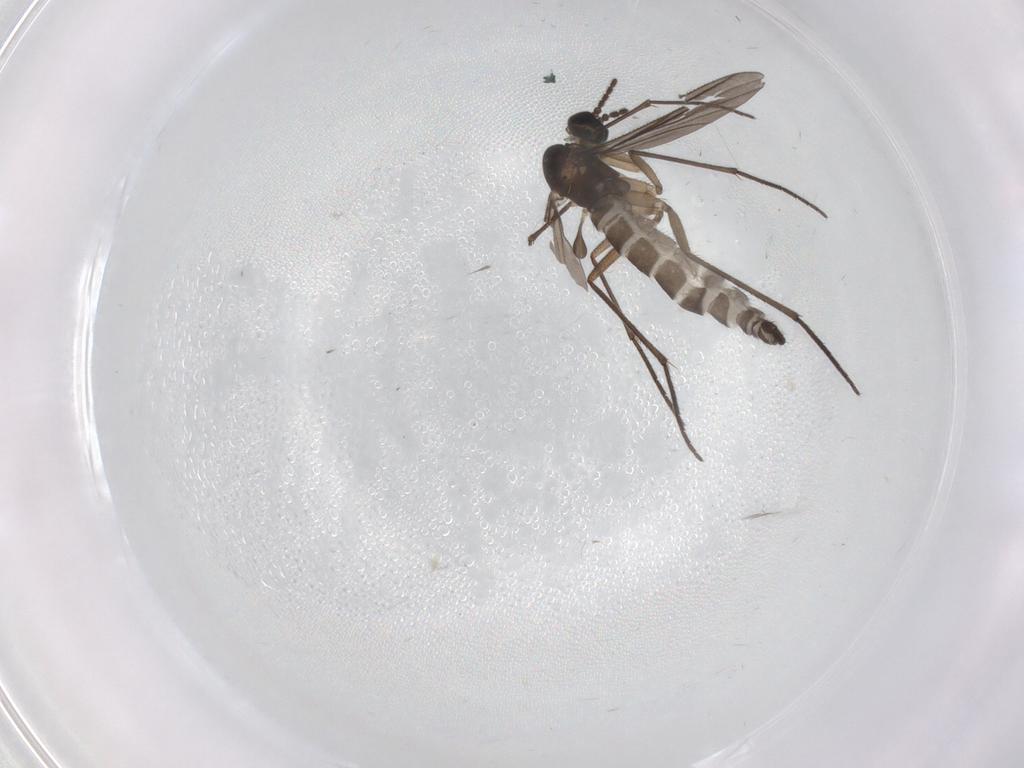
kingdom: Animalia
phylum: Arthropoda
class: Insecta
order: Diptera
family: Sciaridae
